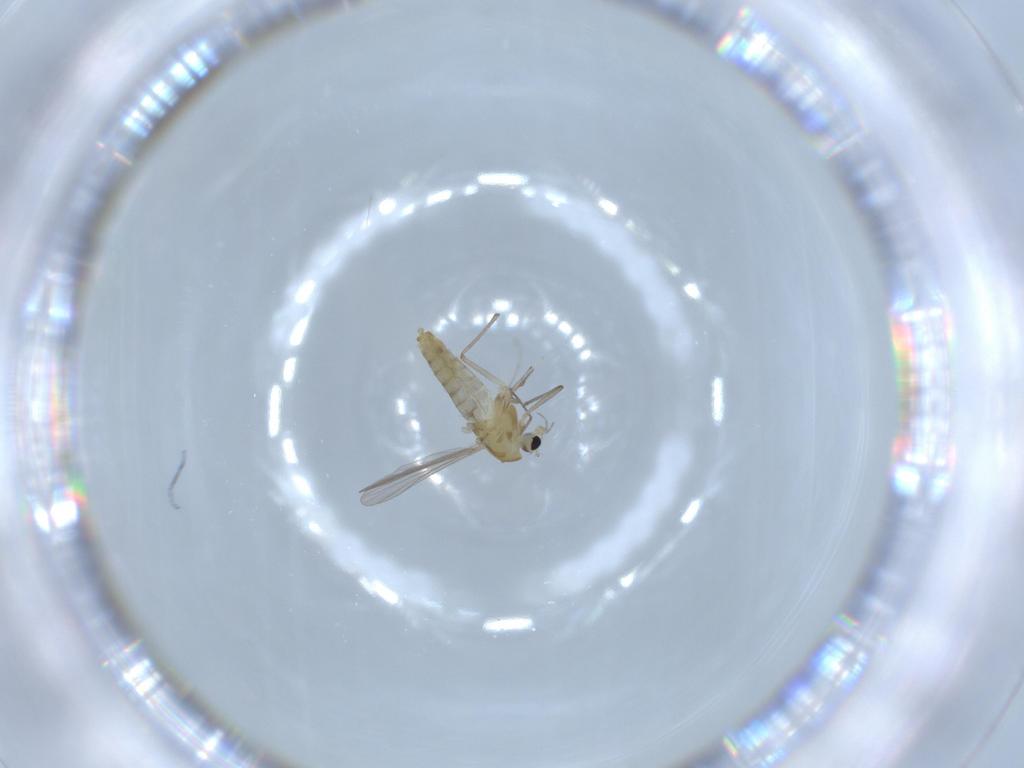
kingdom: Animalia
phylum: Arthropoda
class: Insecta
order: Diptera
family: Chironomidae
